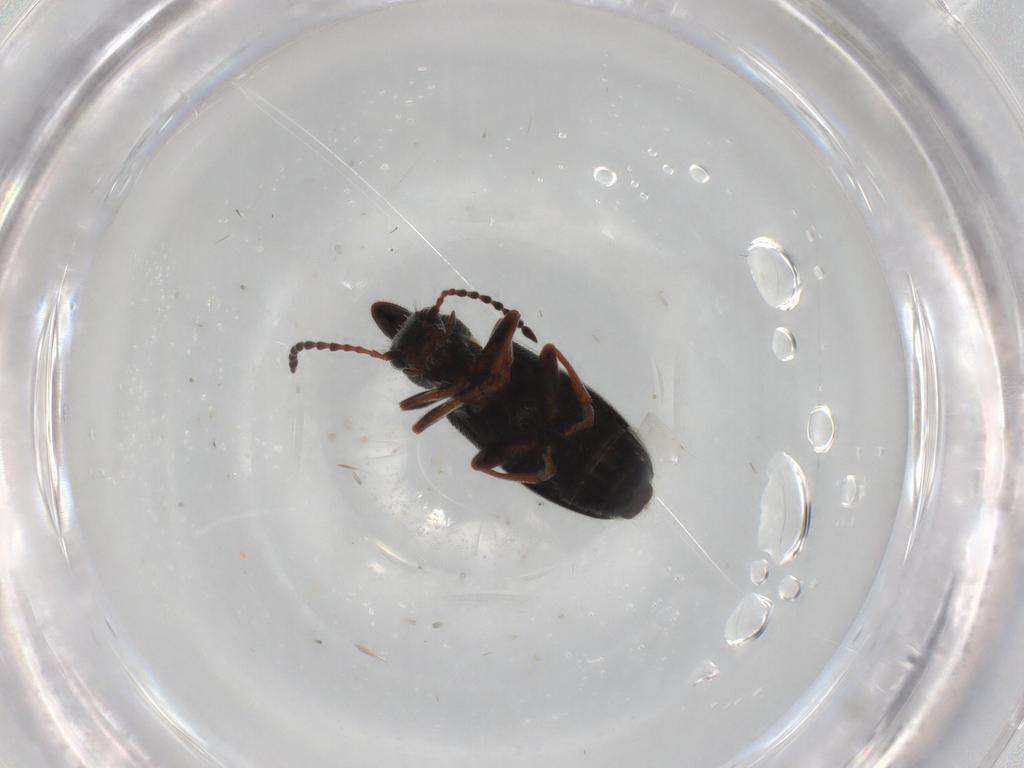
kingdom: Animalia
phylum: Arthropoda
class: Insecta
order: Coleoptera
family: Anthicidae
